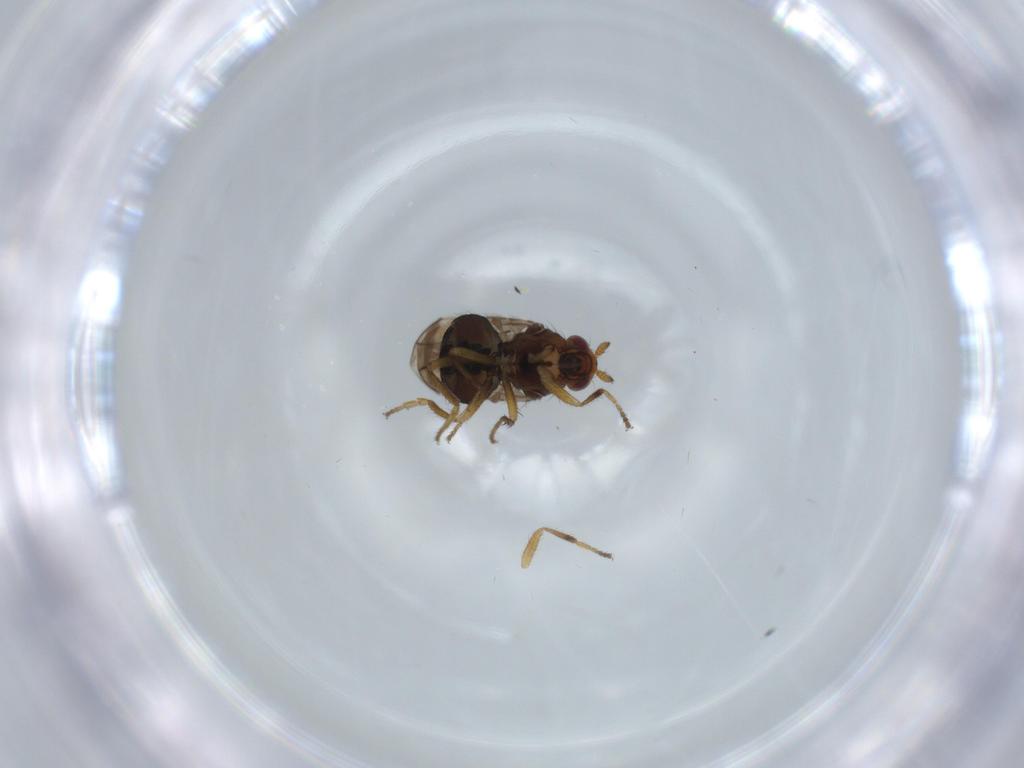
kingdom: Animalia
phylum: Arthropoda
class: Insecta
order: Diptera
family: Sphaeroceridae
